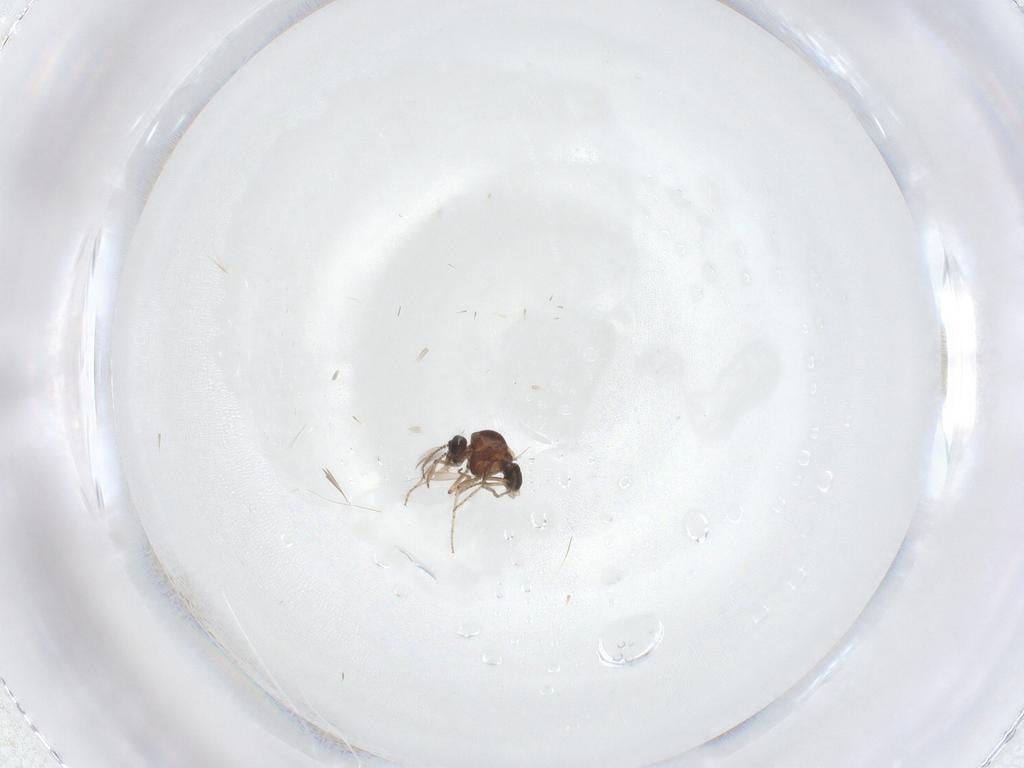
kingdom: Animalia
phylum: Arthropoda
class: Insecta
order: Diptera
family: Ceratopogonidae
